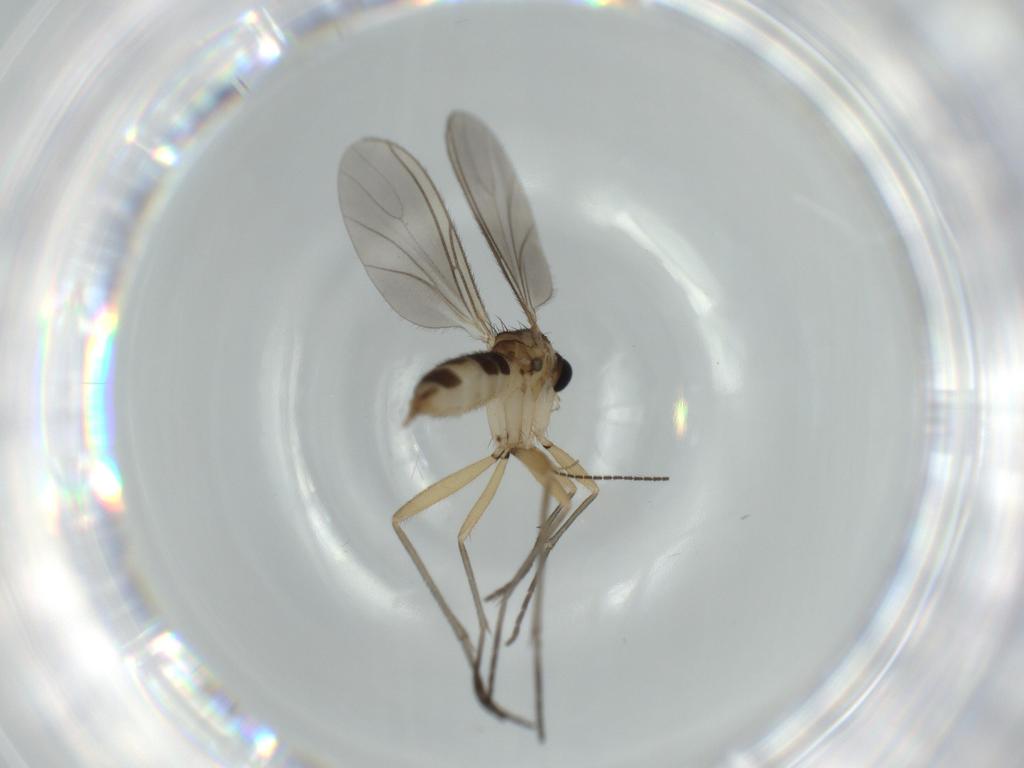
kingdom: Animalia
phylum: Arthropoda
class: Insecta
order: Diptera
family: Sciaridae
